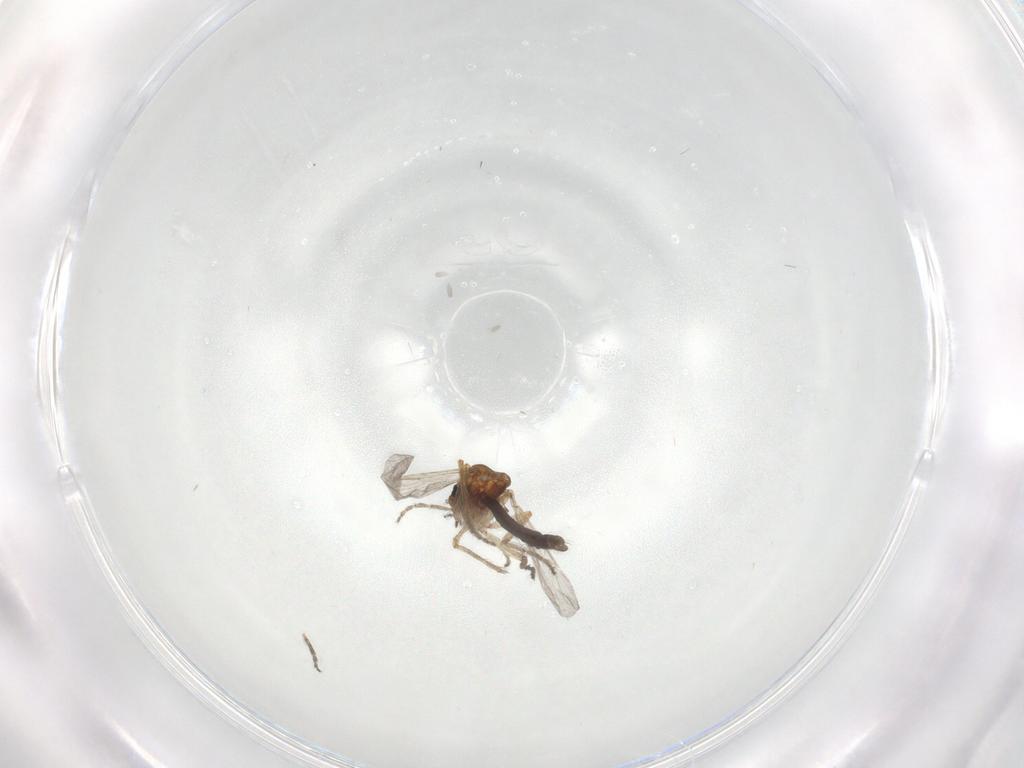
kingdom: Animalia
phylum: Arthropoda
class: Insecta
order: Diptera
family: Ceratopogonidae
